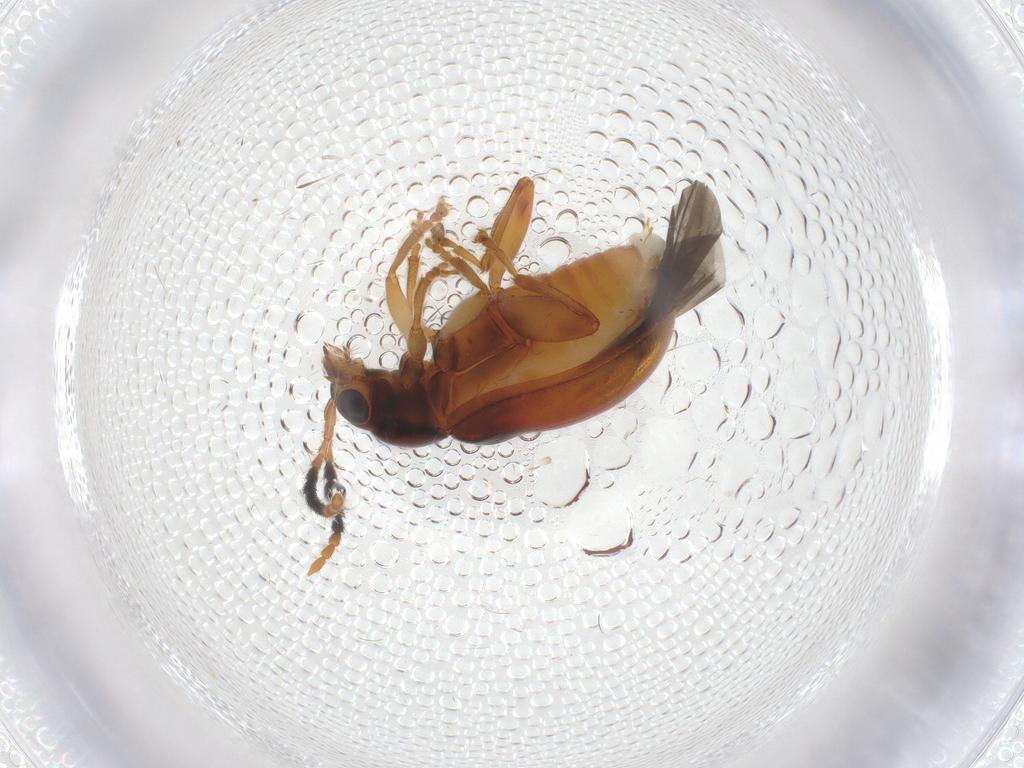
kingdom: Animalia
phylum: Arthropoda
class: Insecta
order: Coleoptera
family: Chrysomelidae
